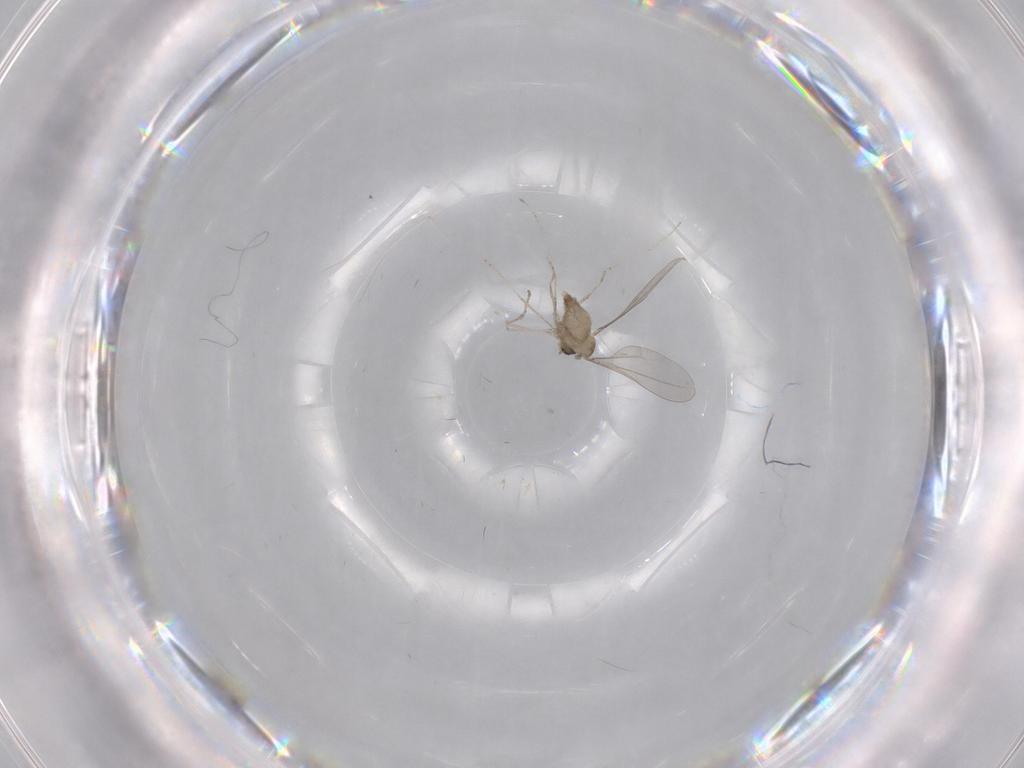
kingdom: Animalia
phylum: Arthropoda
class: Insecta
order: Diptera
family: Cecidomyiidae
